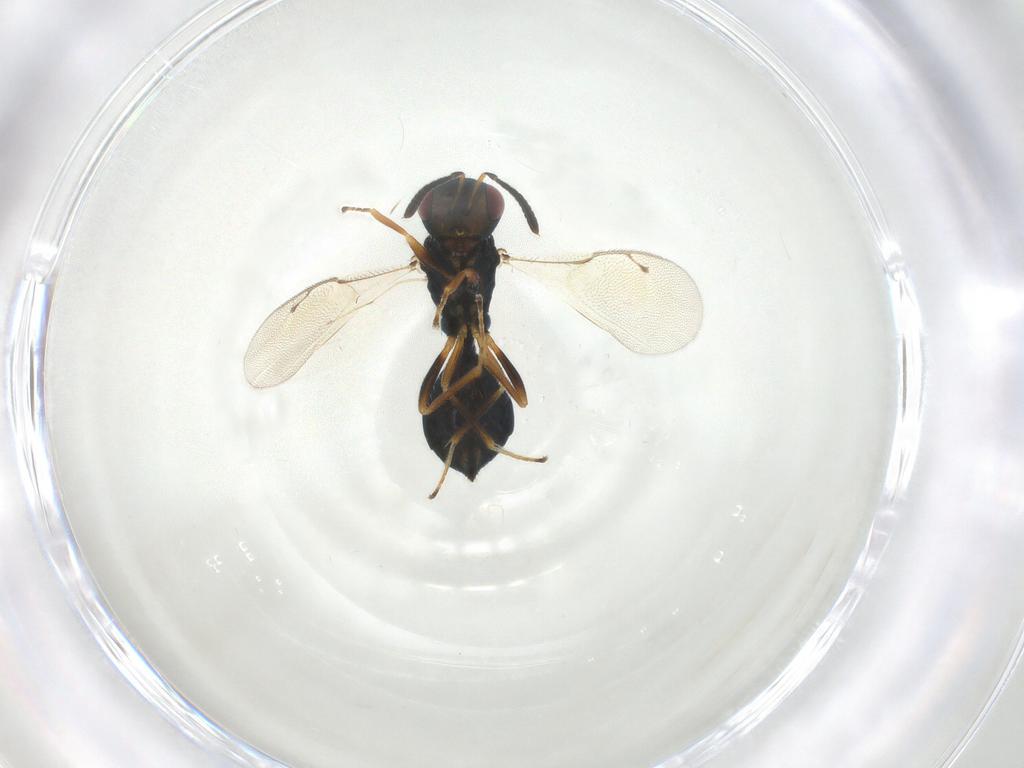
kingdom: Animalia
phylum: Arthropoda
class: Insecta
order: Hymenoptera
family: Pteromalidae
